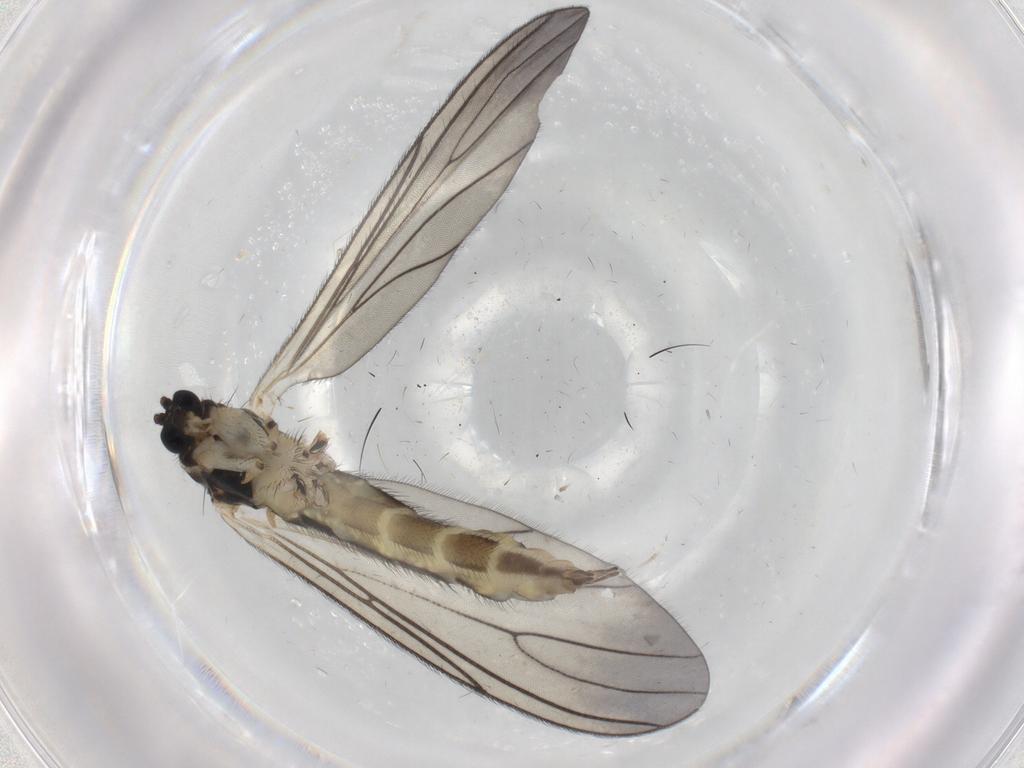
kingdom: Animalia
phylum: Arthropoda
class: Insecta
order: Diptera
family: Sciaridae
